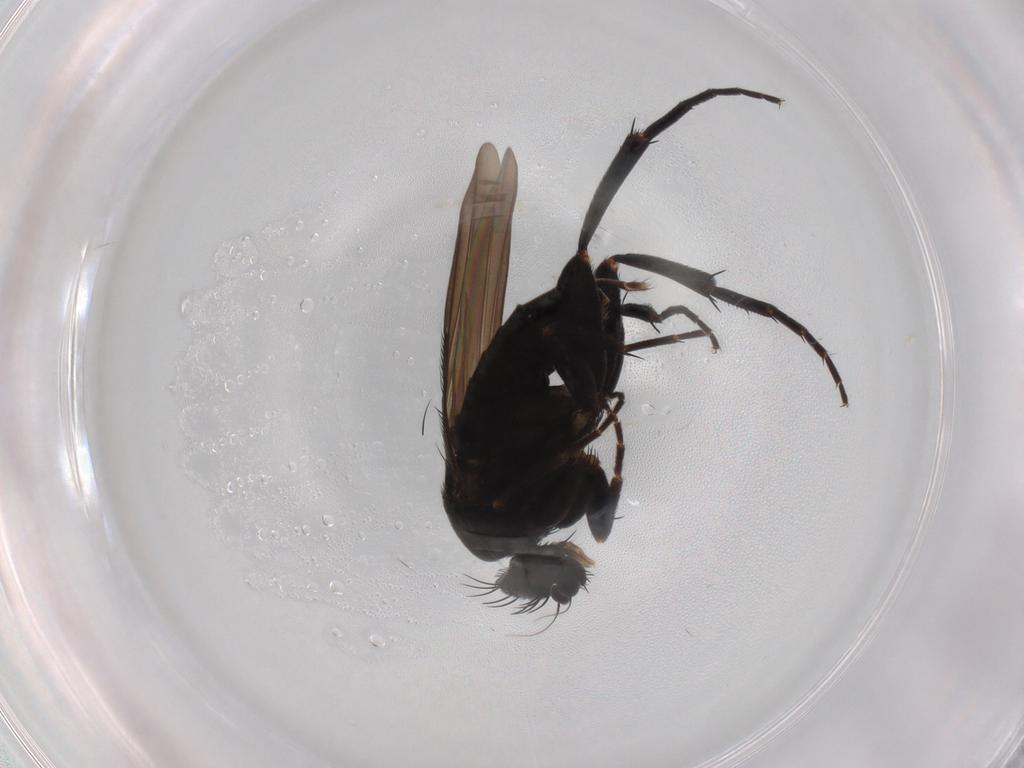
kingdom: Animalia
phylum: Arthropoda
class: Insecta
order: Diptera
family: Phoridae
